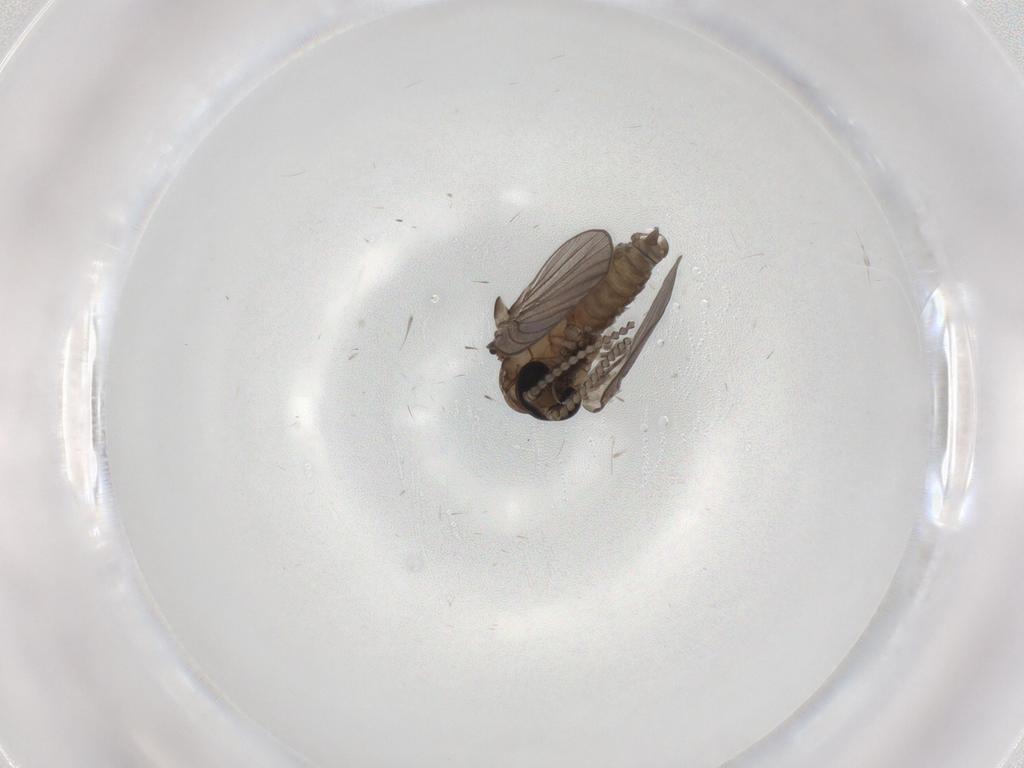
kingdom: Animalia
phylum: Arthropoda
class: Insecta
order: Diptera
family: Psychodidae
